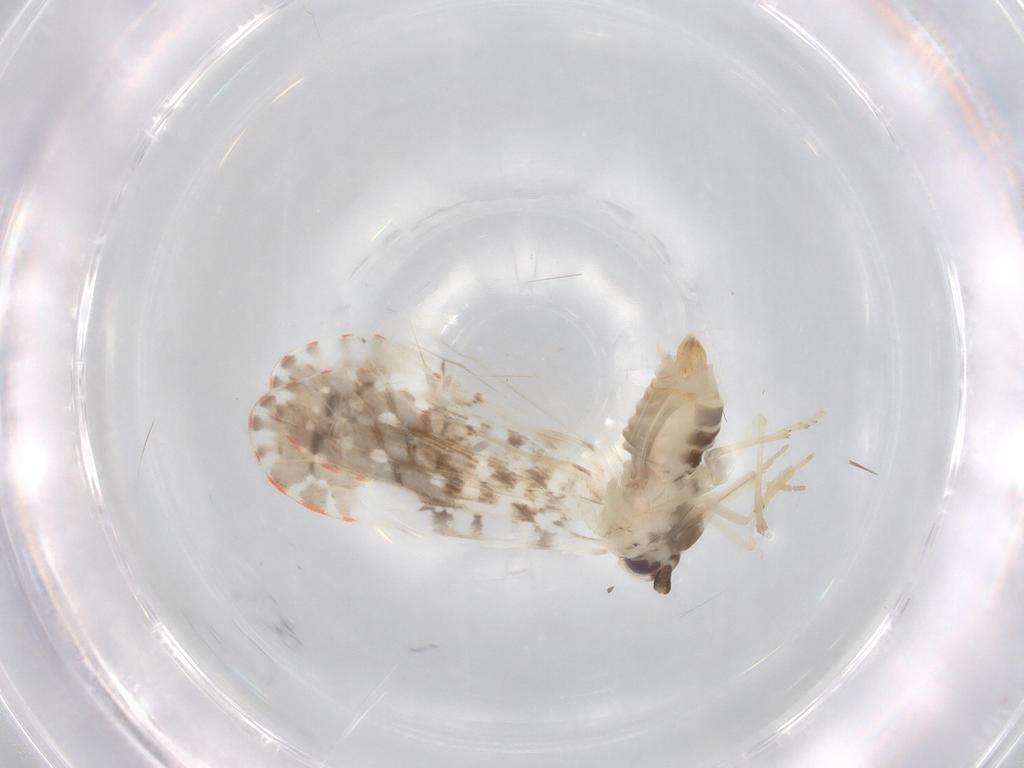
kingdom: Animalia
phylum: Arthropoda
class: Insecta
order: Hemiptera
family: Derbidae
